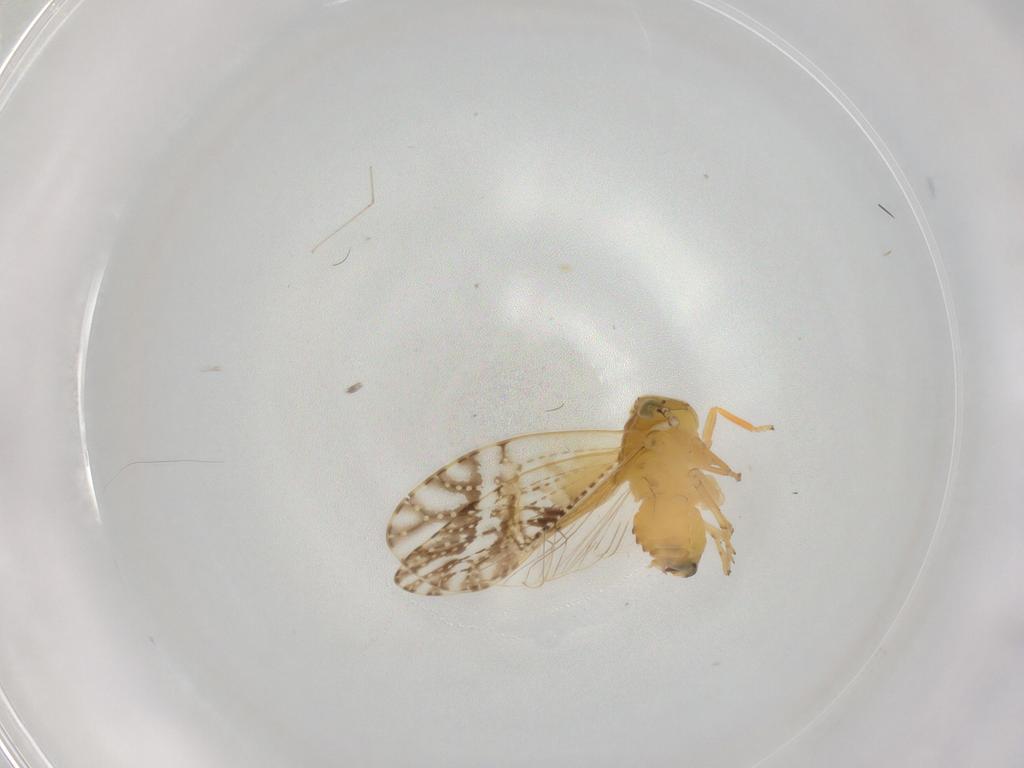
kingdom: Animalia
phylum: Arthropoda
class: Insecta
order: Hemiptera
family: Delphacidae
